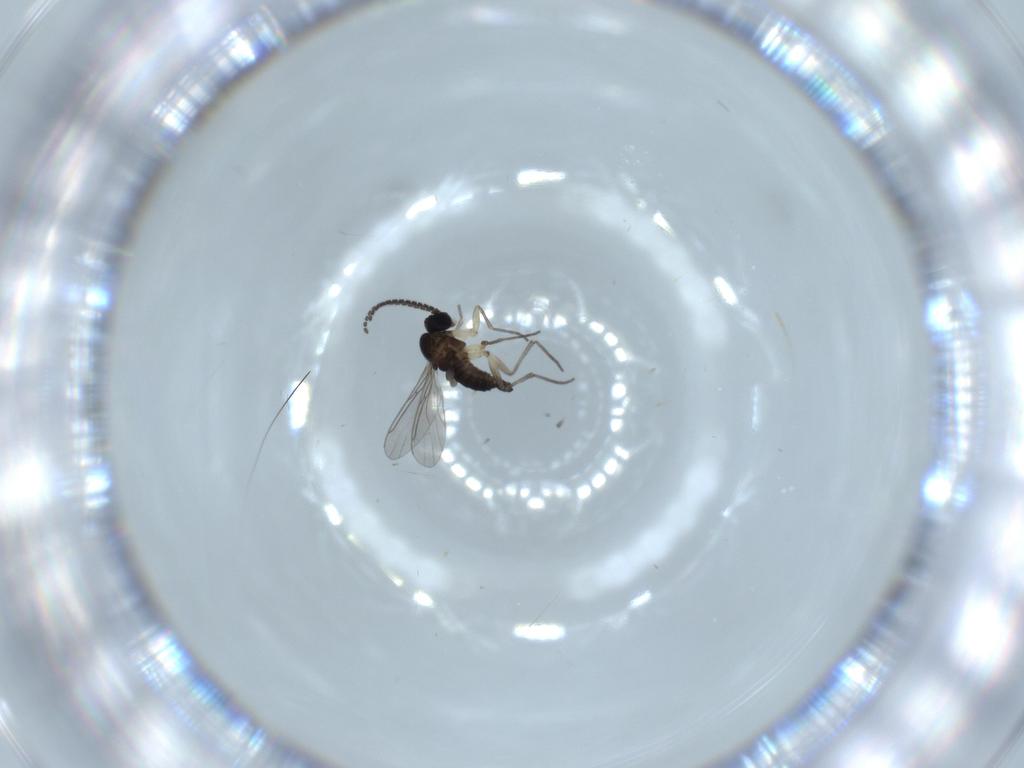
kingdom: Animalia
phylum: Arthropoda
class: Insecta
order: Diptera
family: Sciaridae
